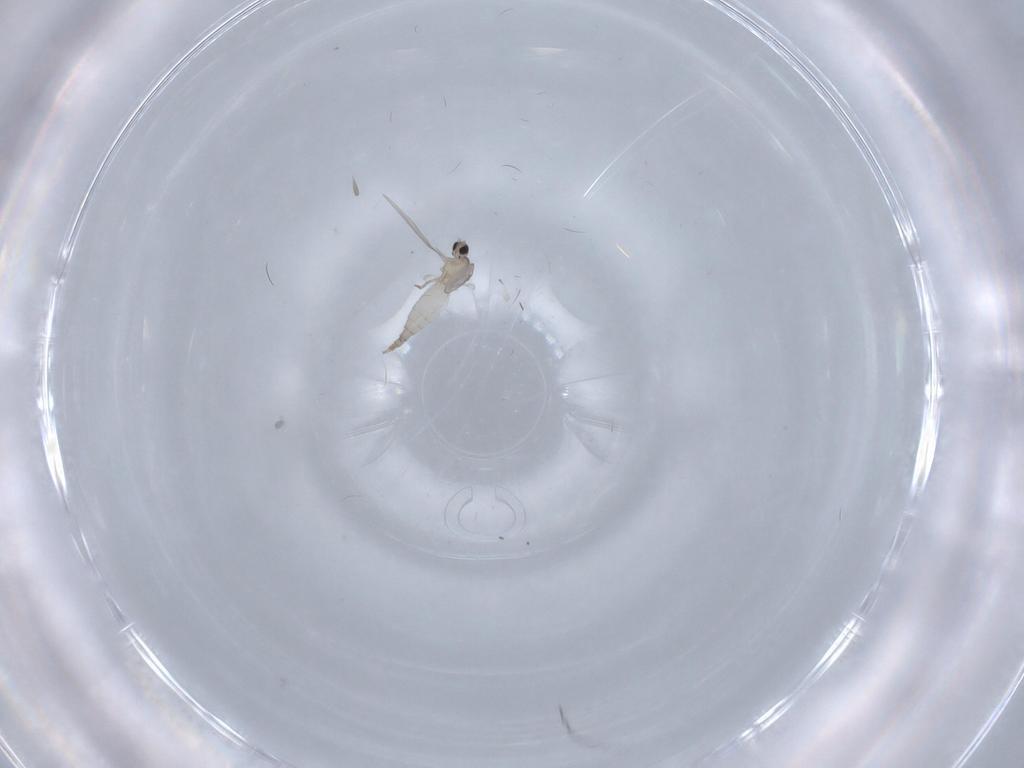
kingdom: Animalia
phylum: Arthropoda
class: Insecta
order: Diptera
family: Cecidomyiidae
